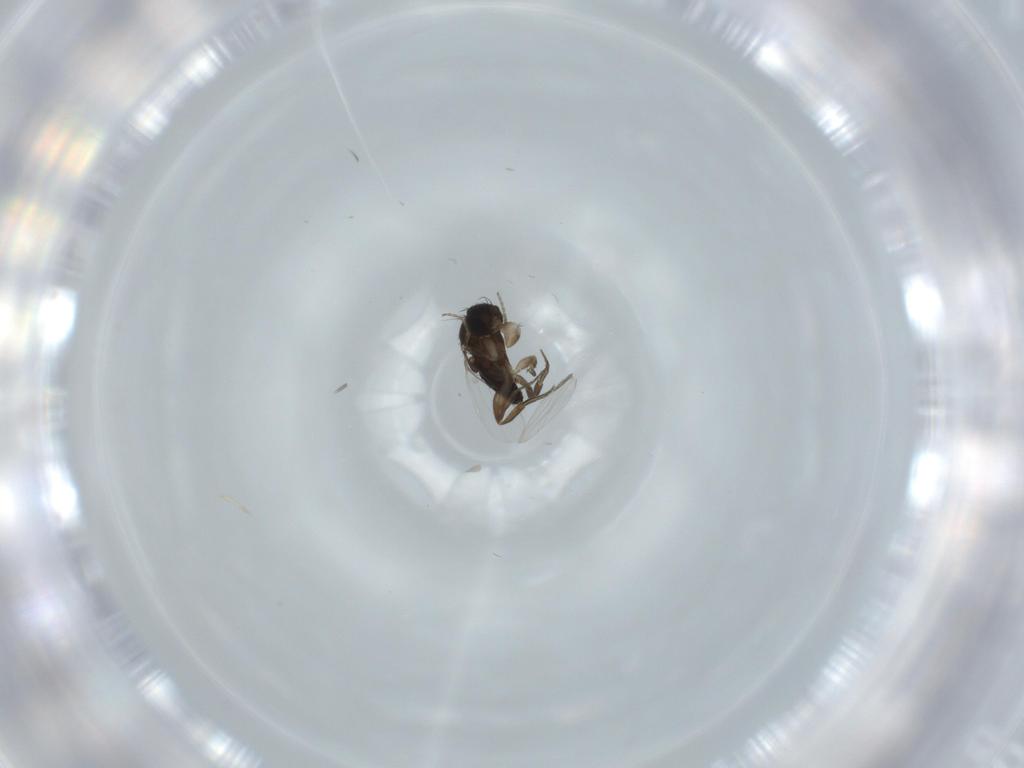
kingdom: Animalia
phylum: Arthropoda
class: Insecta
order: Diptera
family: Phoridae
